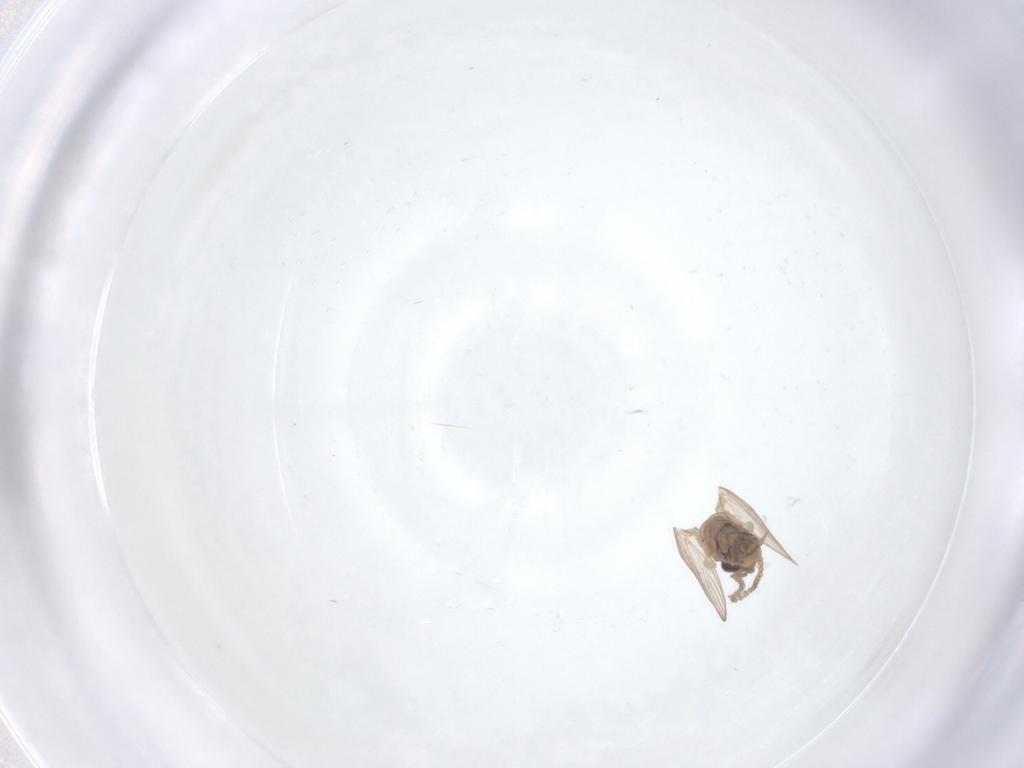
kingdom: Animalia
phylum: Arthropoda
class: Insecta
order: Diptera
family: Psychodidae
